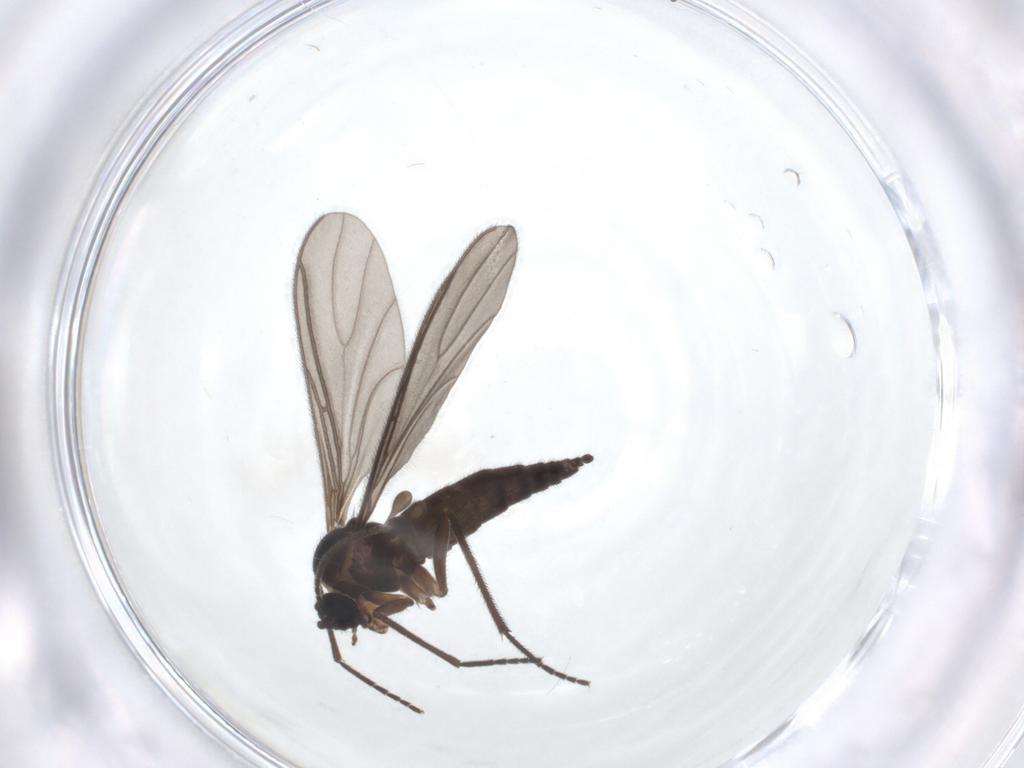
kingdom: Animalia
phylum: Arthropoda
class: Insecta
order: Diptera
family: Sciaridae
